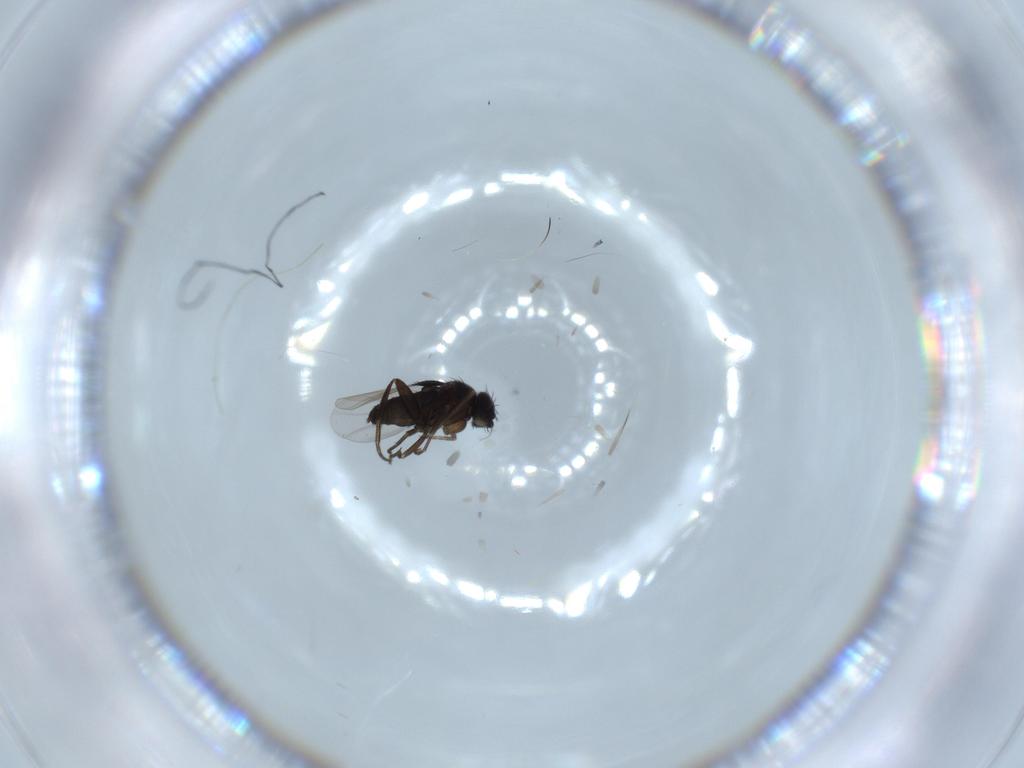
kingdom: Animalia
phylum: Arthropoda
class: Insecta
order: Diptera
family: Phoridae
